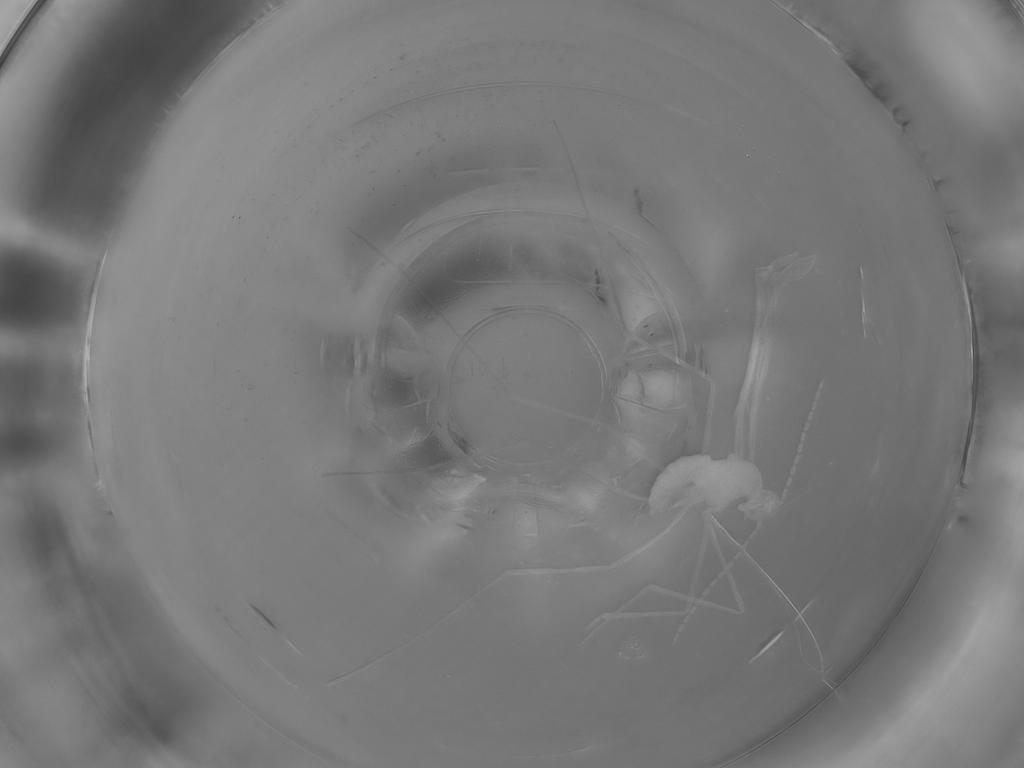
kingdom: Animalia
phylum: Arthropoda
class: Insecta
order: Diptera
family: Cecidomyiidae
